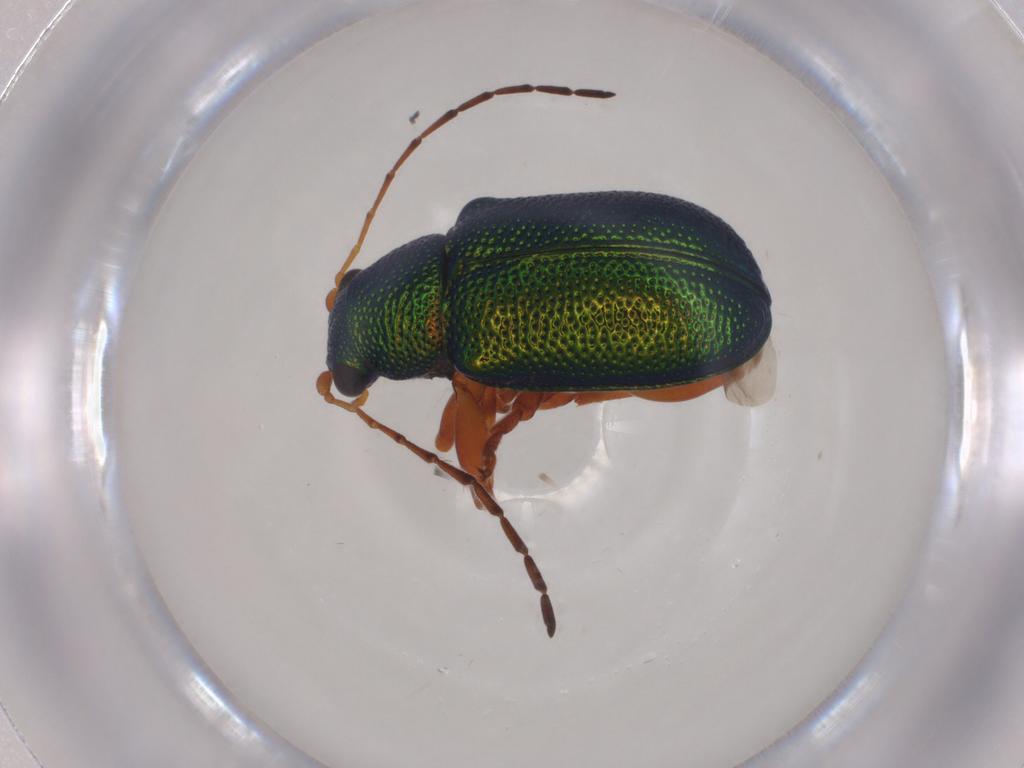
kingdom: Animalia
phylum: Arthropoda
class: Insecta
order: Coleoptera
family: Chrysomelidae
